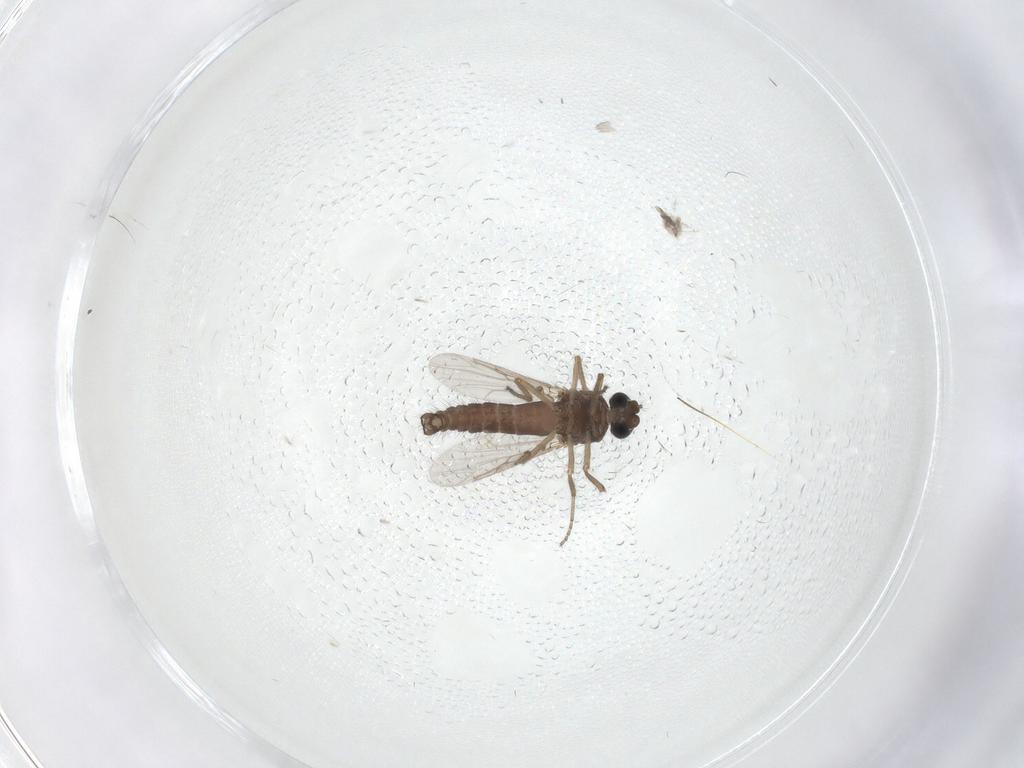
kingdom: Animalia
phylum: Arthropoda
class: Insecta
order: Diptera
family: Ceratopogonidae
